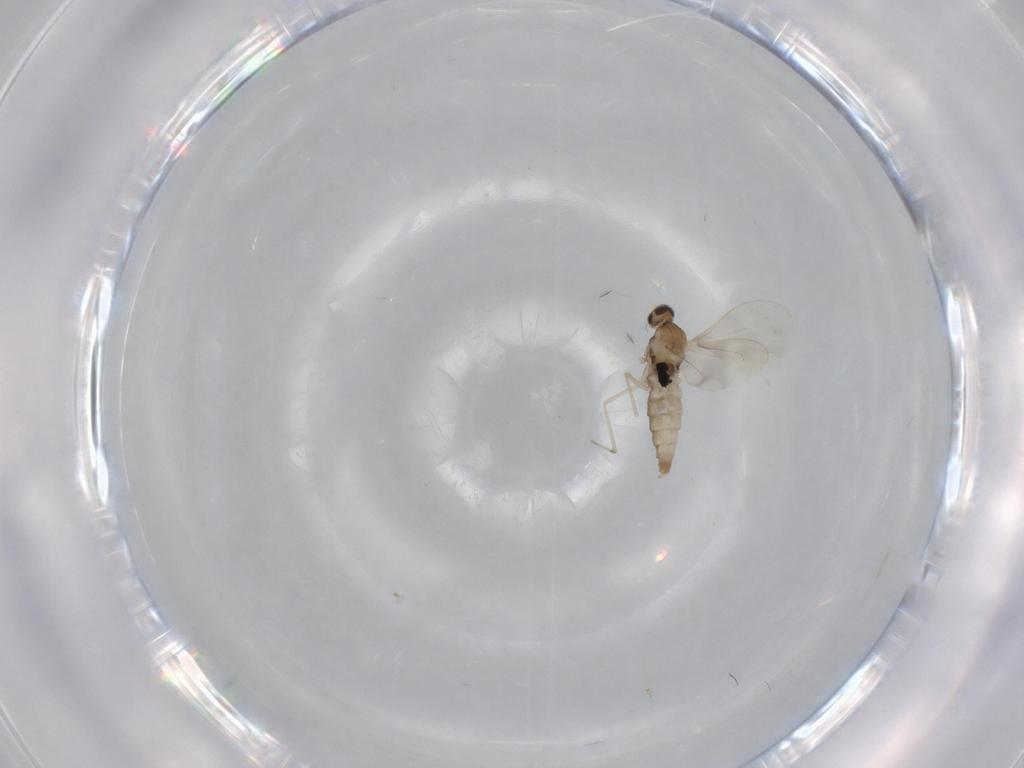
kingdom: Animalia
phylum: Arthropoda
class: Insecta
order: Diptera
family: Sciaridae
